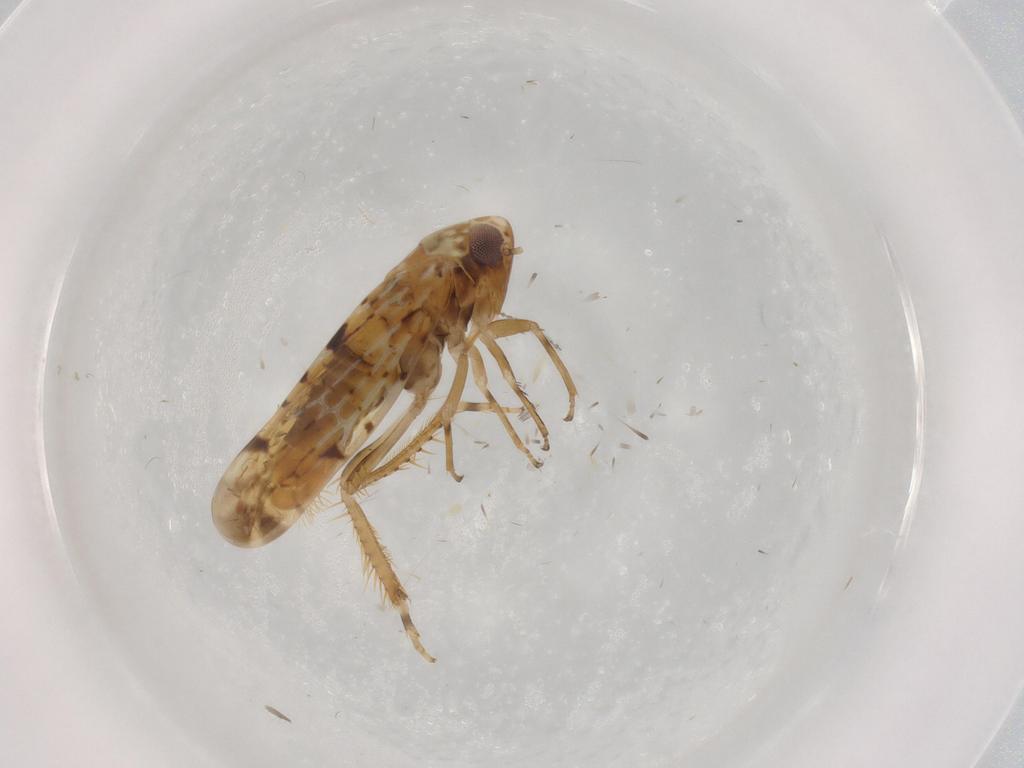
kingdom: Animalia
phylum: Arthropoda
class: Insecta
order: Hemiptera
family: Cicadellidae
